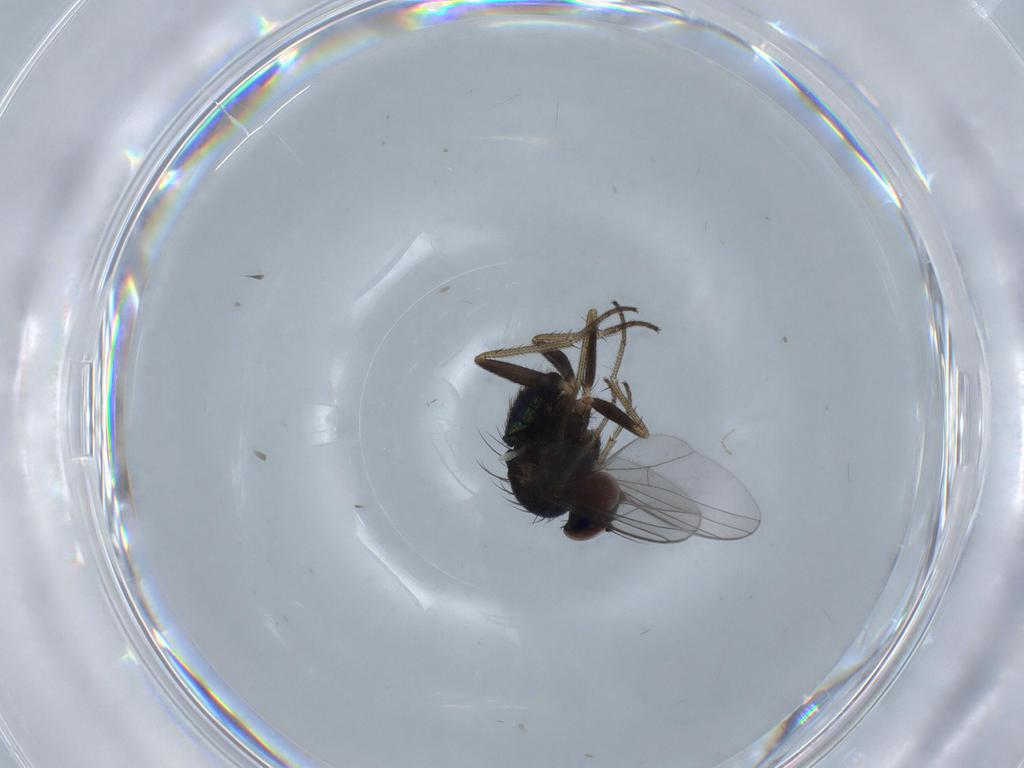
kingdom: Animalia
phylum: Arthropoda
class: Insecta
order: Diptera
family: Dolichopodidae
